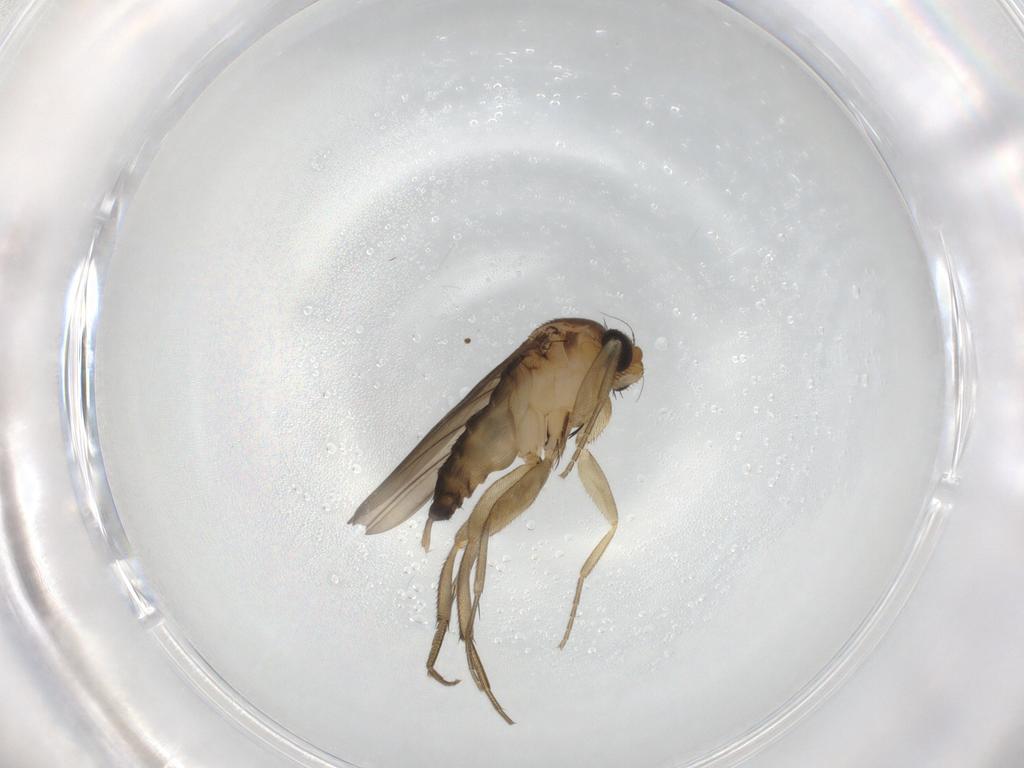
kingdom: Animalia
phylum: Arthropoda
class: Insecta
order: Diptera
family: Phoridae
